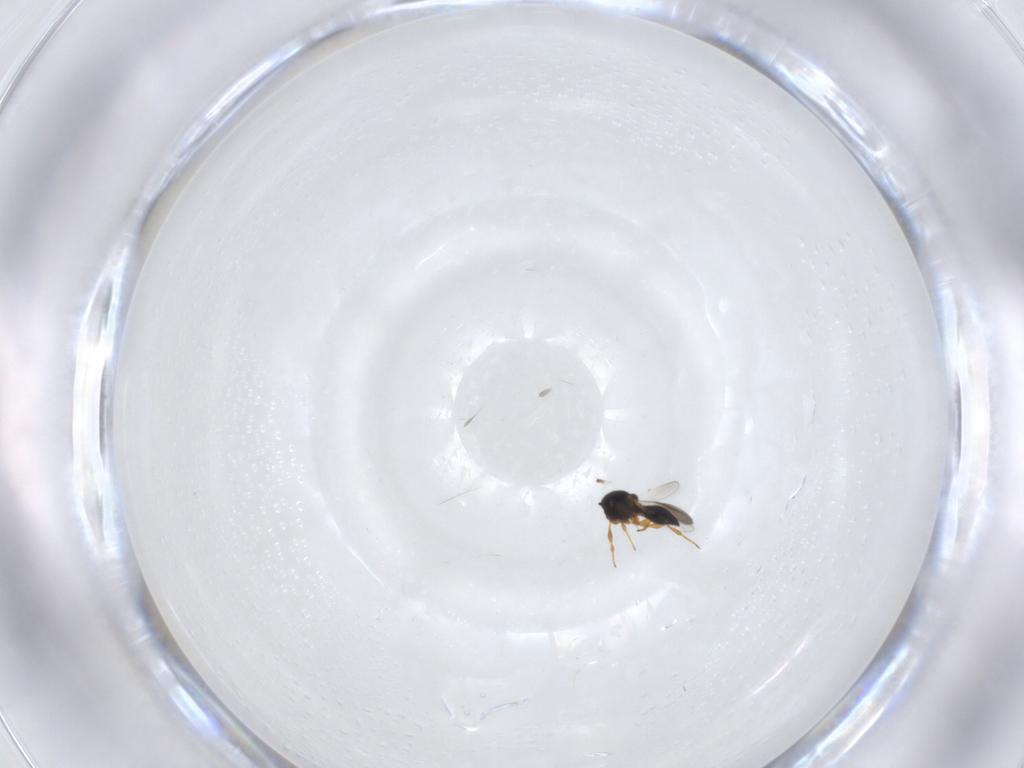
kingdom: Animalia
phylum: Arthropoda
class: Insecta
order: Hymenoptera
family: Platygastridae
